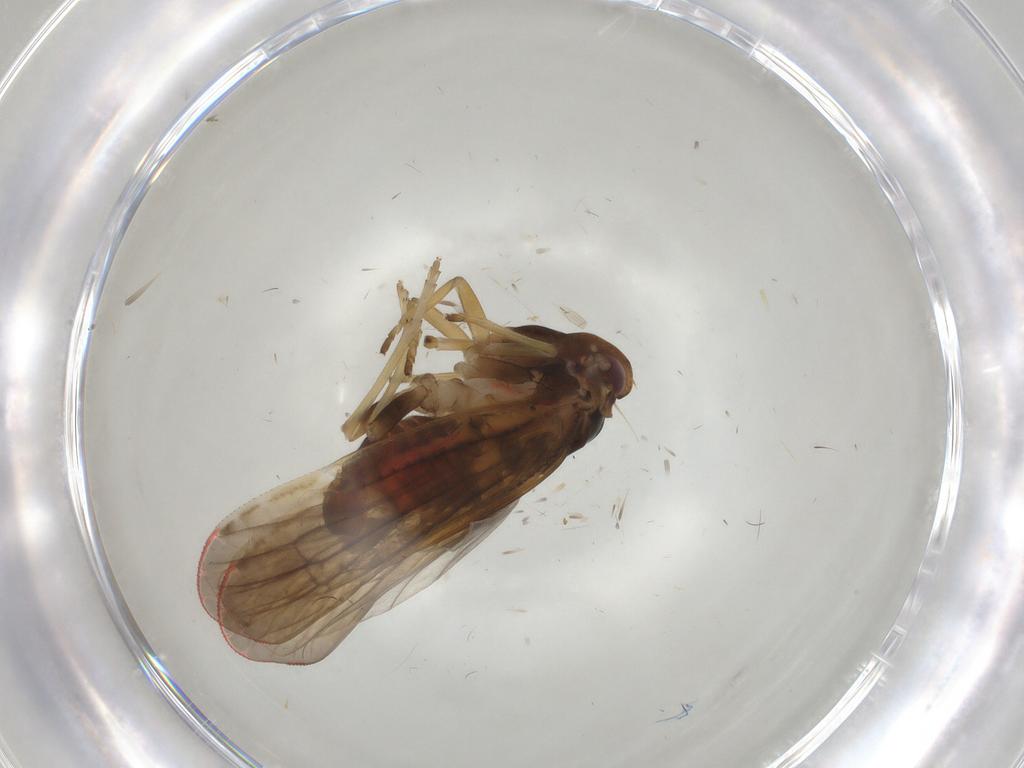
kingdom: Animalia
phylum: Arthropoda
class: Insecta
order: Hemiptera
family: Derbidae
